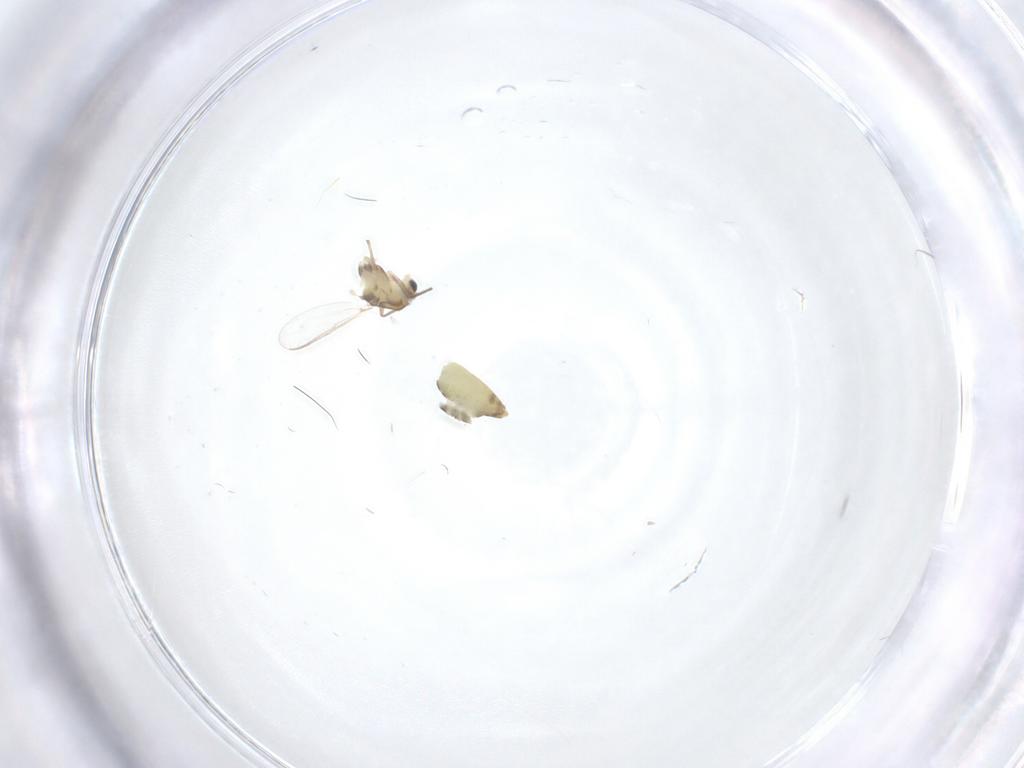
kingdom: Animalia
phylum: Arthropoda
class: Insecta
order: Diptera
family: Chironomidae
